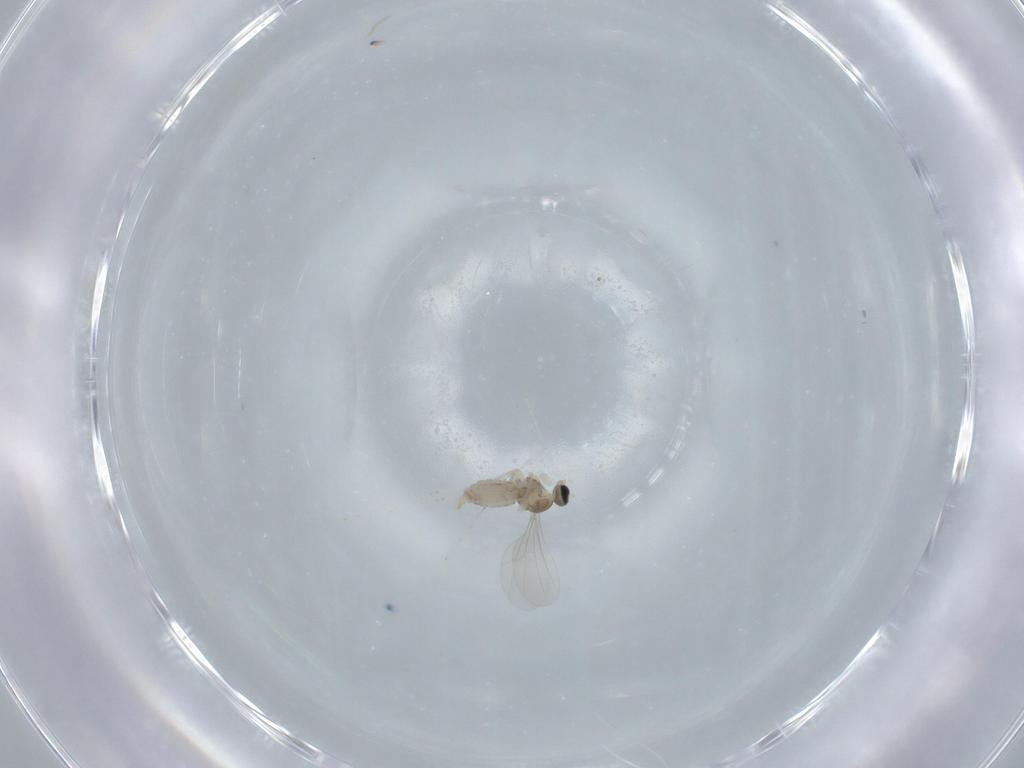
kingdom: Animalia
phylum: Arthropoda
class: Insecta
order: Diptera
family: Cecidomyiidae
